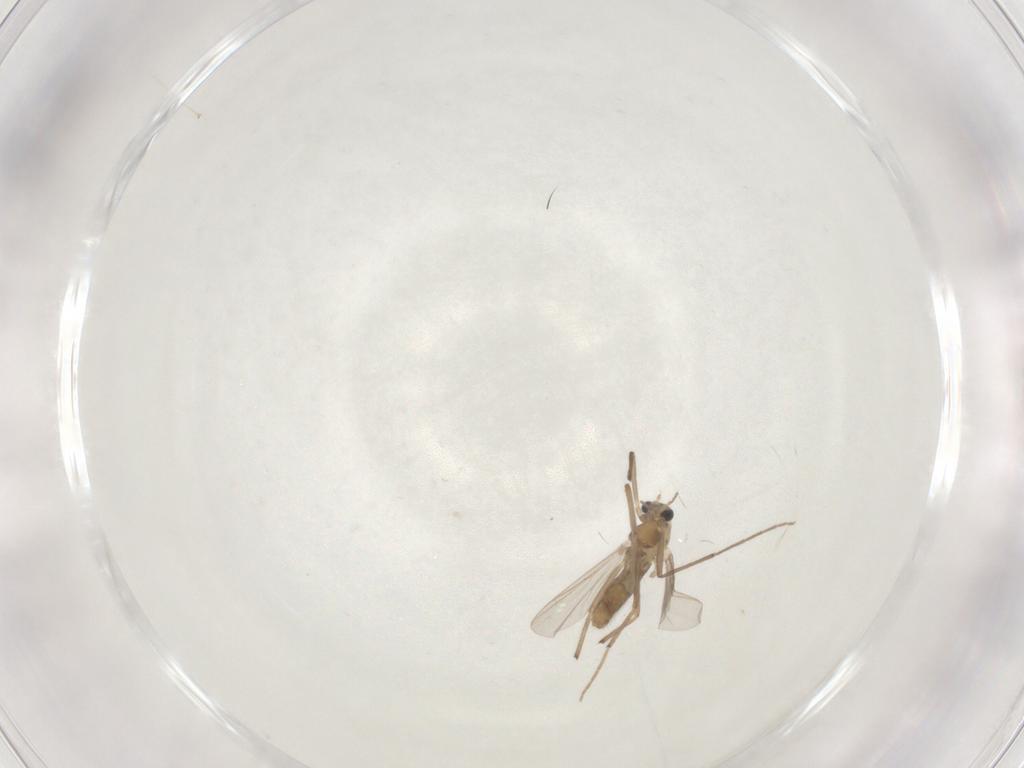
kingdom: Animalia
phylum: Arthropoda
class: Insecta
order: Diptera
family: Chironomidae
